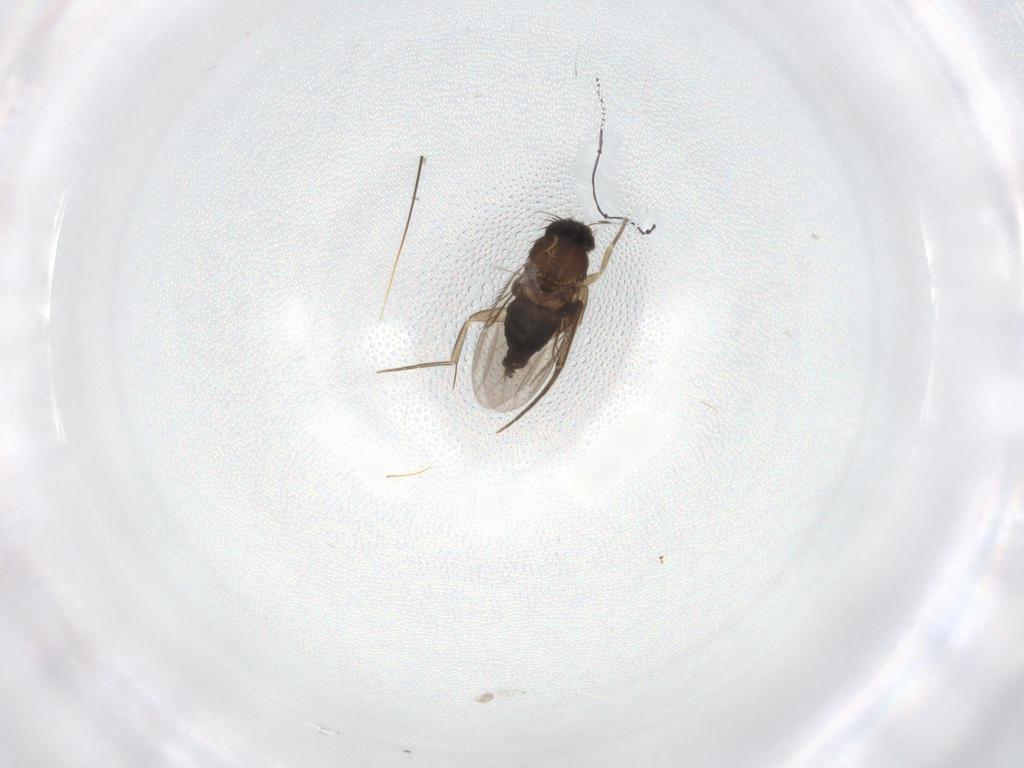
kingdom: Animalia
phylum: Arthropoda
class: Insecta
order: Diptera
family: Phoridae
